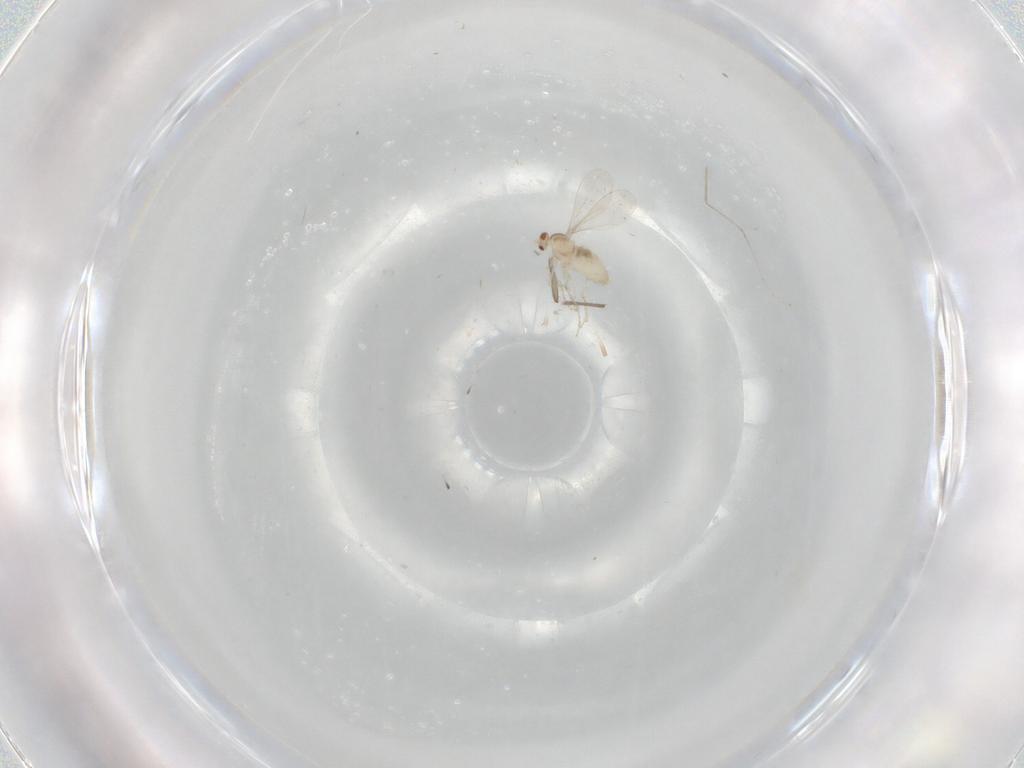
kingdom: Animalia
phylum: Arthropoda
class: Insecta
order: Diptera
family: Cecidomyiidae
